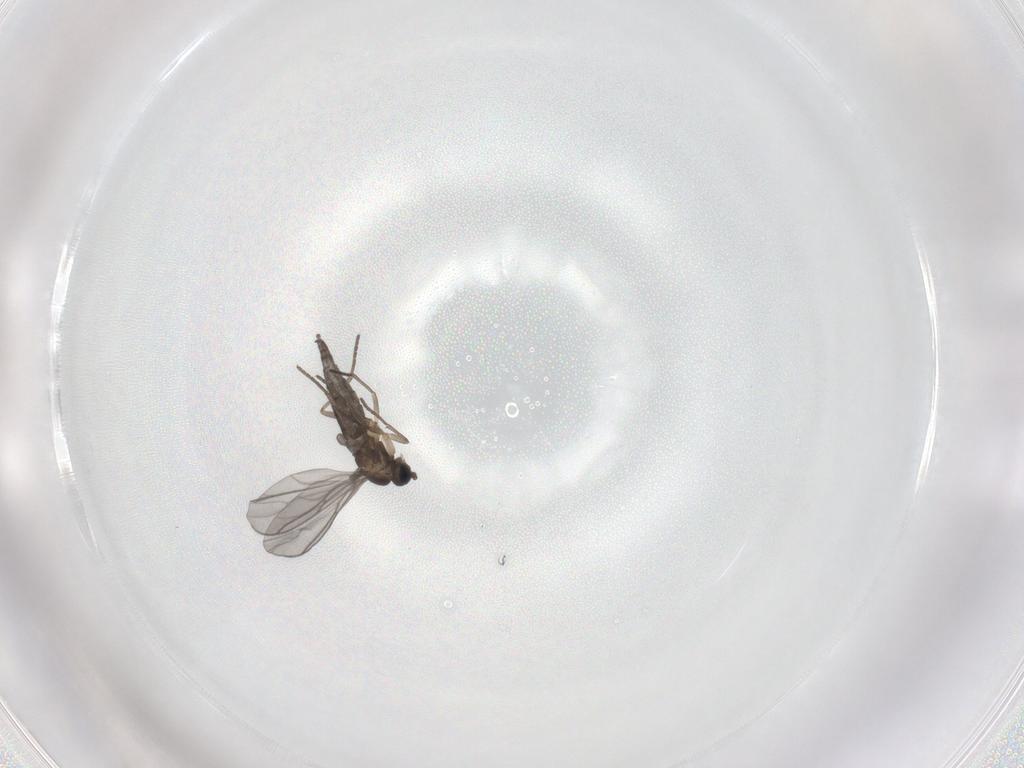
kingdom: Animalia
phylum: Arthropoda
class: Insecta
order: Diptera
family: Sciaridae
